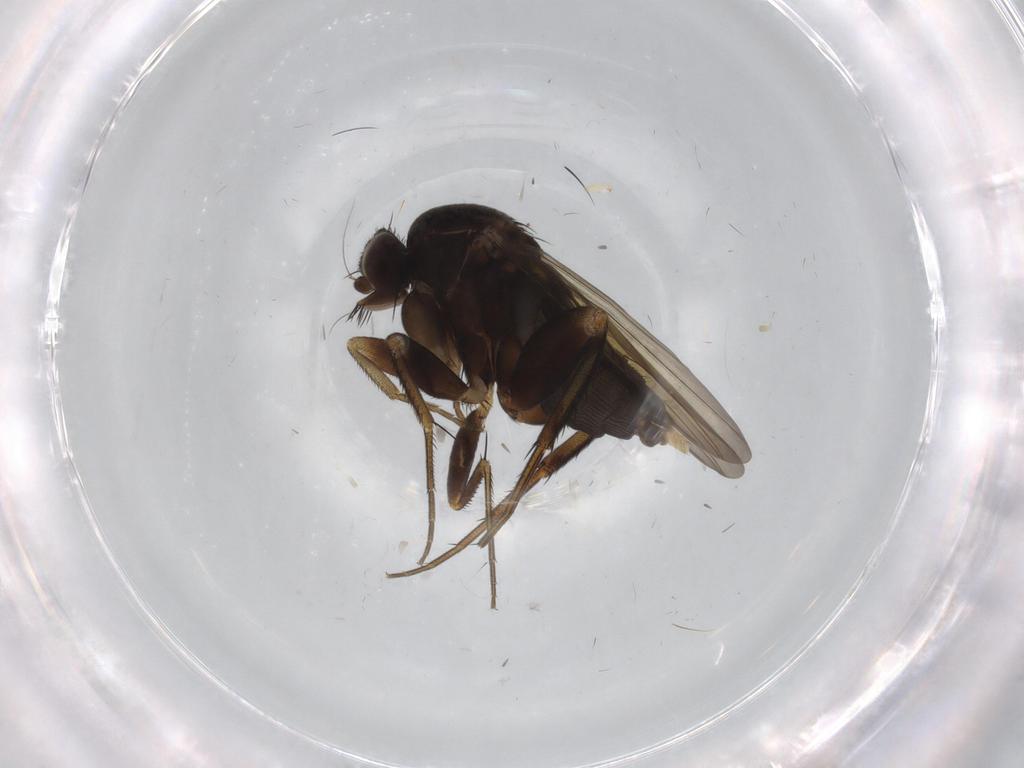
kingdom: Animalia
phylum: Arthropoda
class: Insecta
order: Diptera
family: Phoridae
